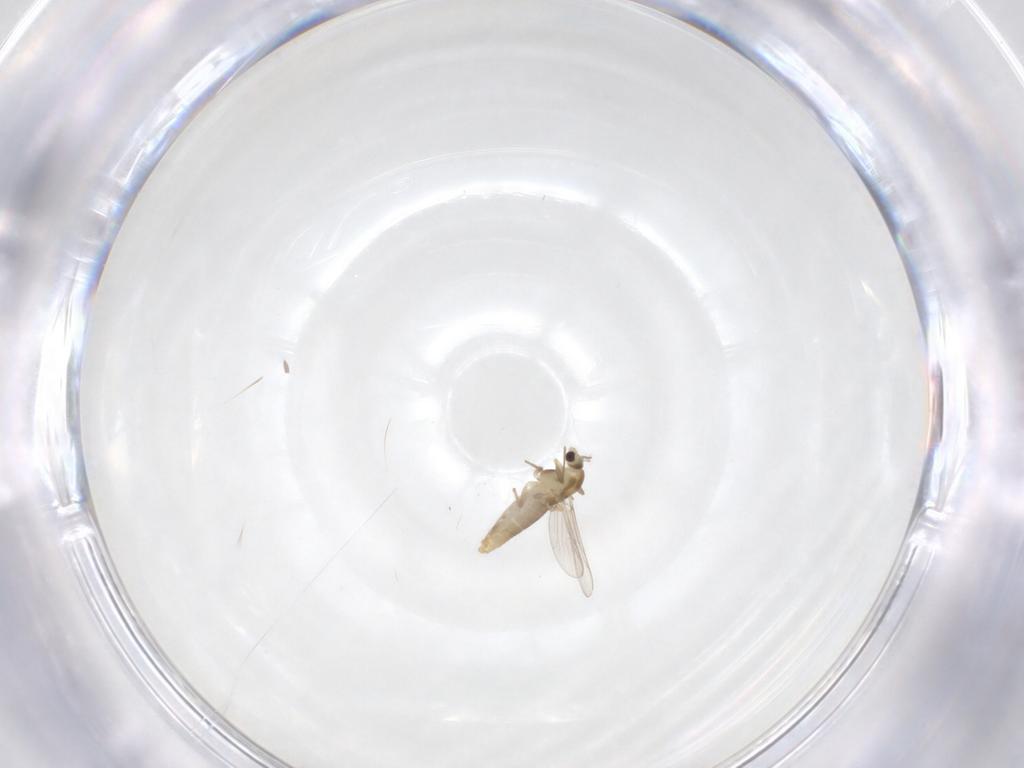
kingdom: Animalia
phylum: Arthropoda
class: Insecta
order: Diptera
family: Chironomidae
